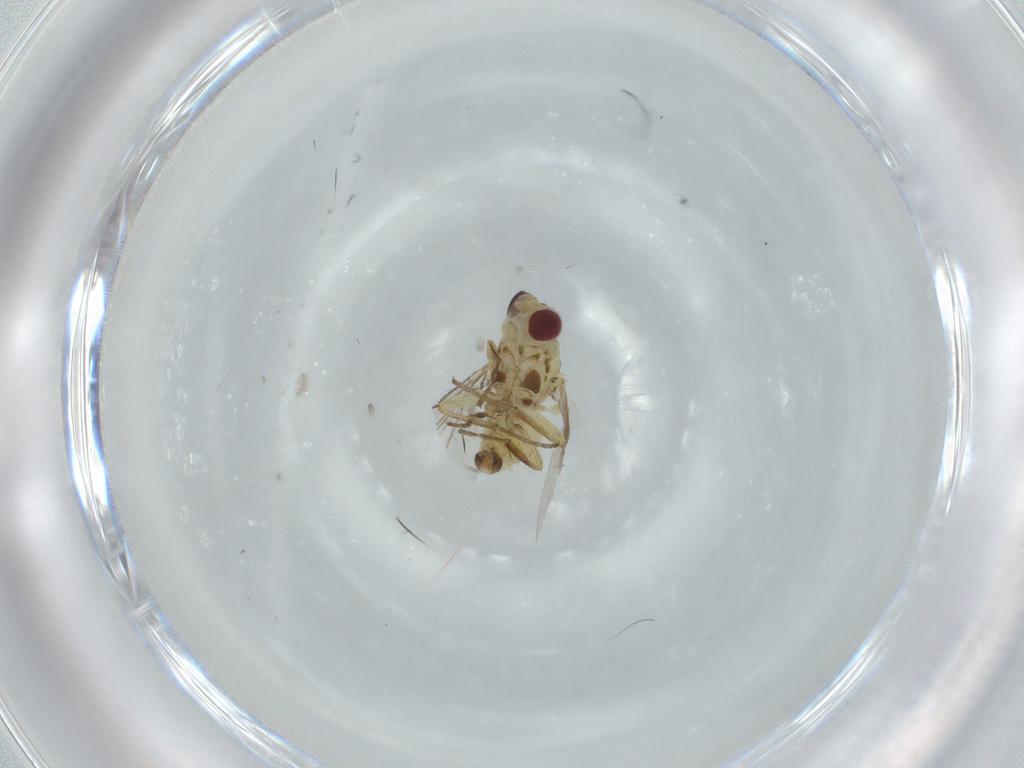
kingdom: Animalia
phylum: Arthropoda
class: Insecta
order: Diptera
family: Agromyzidae
